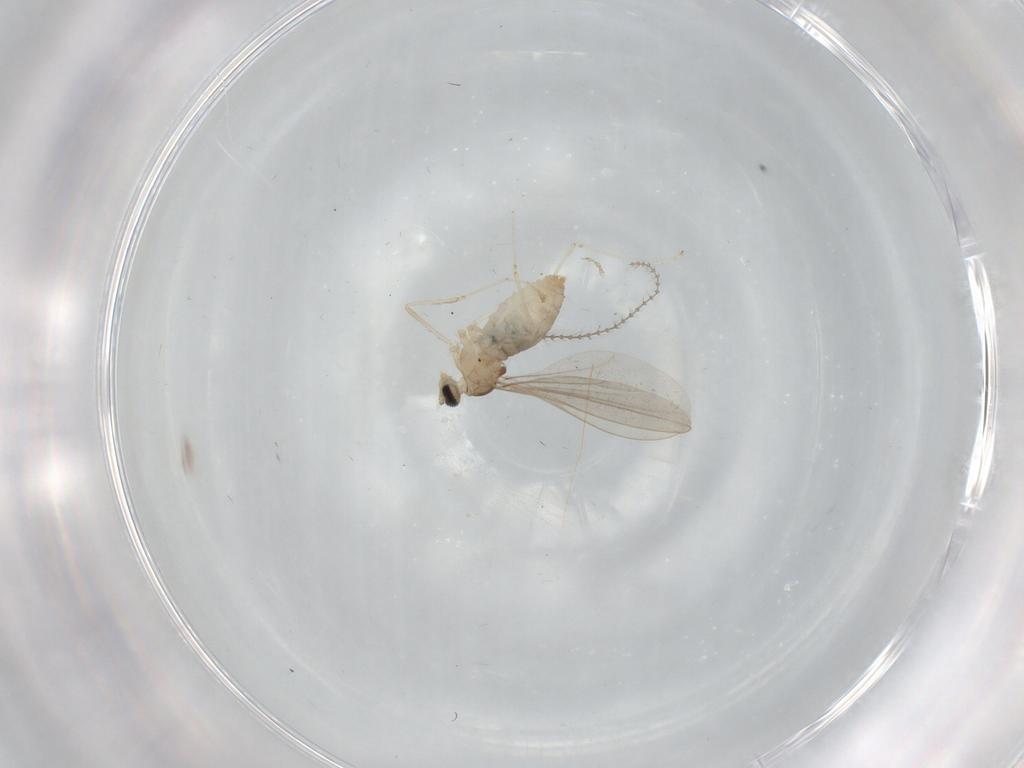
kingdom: Animalia
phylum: Arthropoda
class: Insecta
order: Diptera
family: Cecidomyiidae
